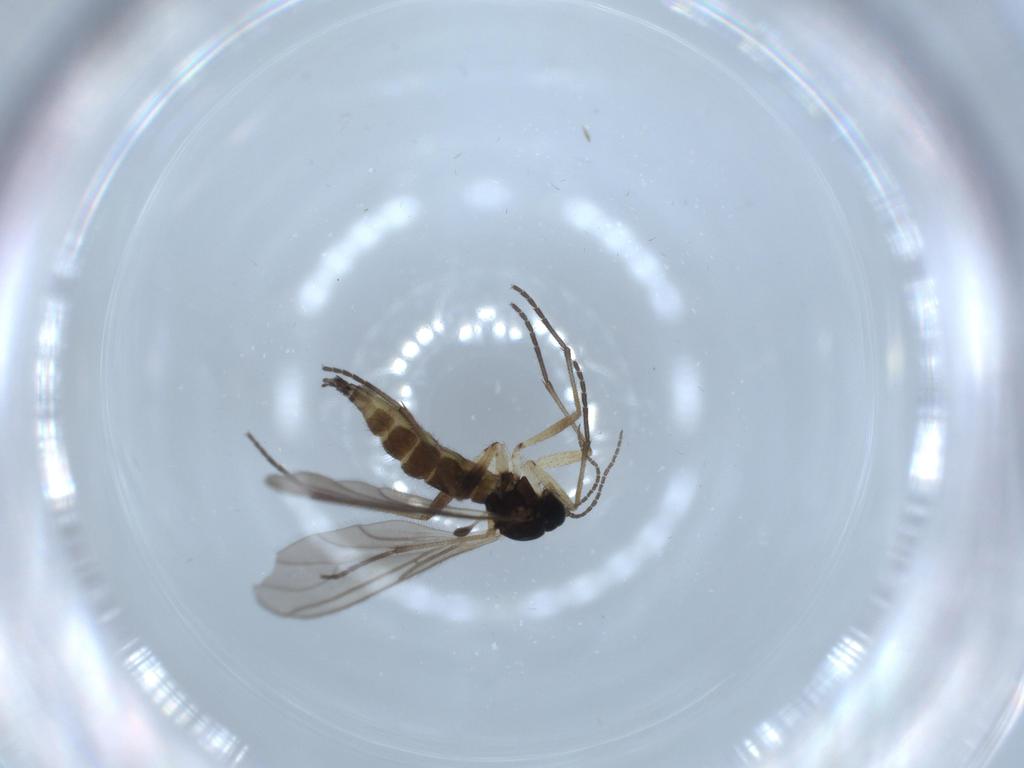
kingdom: Animalia
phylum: Arthropoda
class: Insecta
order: Diptera
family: Sciaridae
